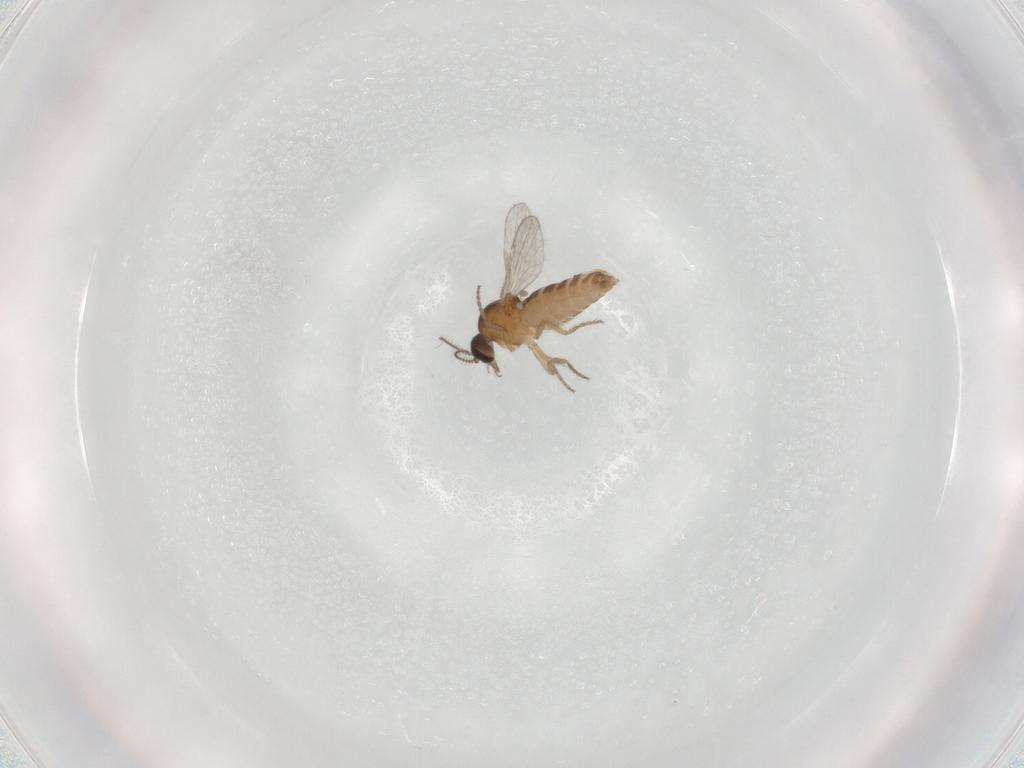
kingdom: Animalia
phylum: Arthropoda
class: Insecta
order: Diptera
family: Ceratopogonidae
